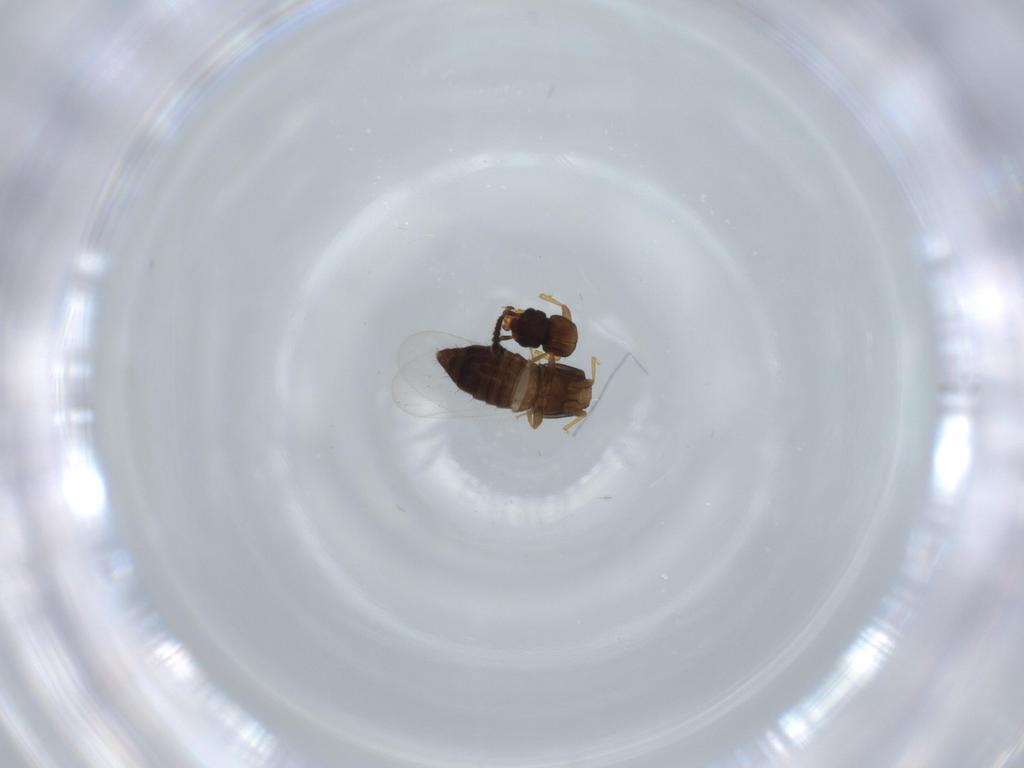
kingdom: Animalia
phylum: Arthropoda
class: Insecta
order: Coleoptera
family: Staphylinidae
